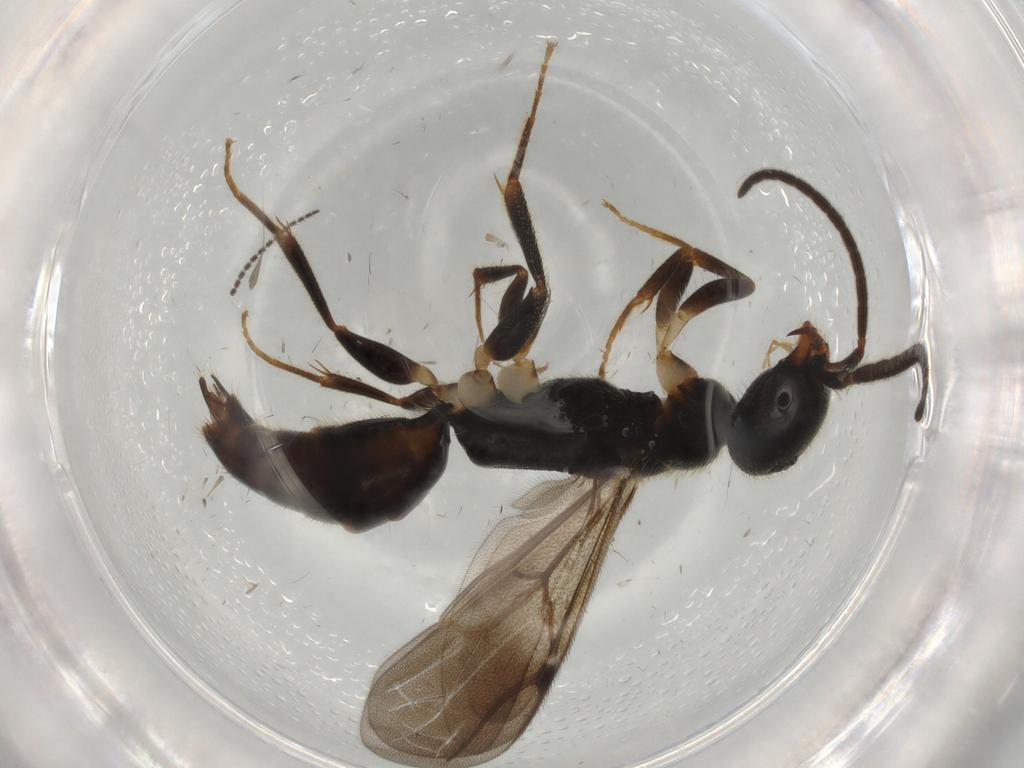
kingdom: Animalia
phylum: Arthropoda
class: Insecta
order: Hymenoptera
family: Bethylidae
